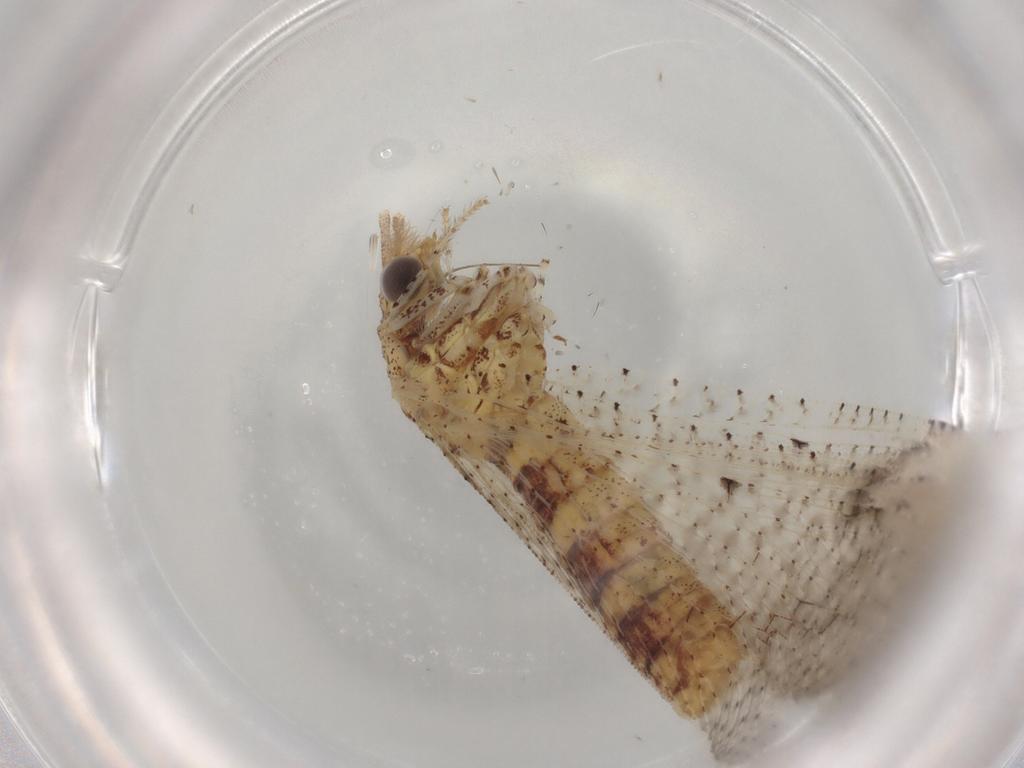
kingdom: Animalia
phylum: Arthropoda
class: Insecta
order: Neuroptera
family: Berothidae
